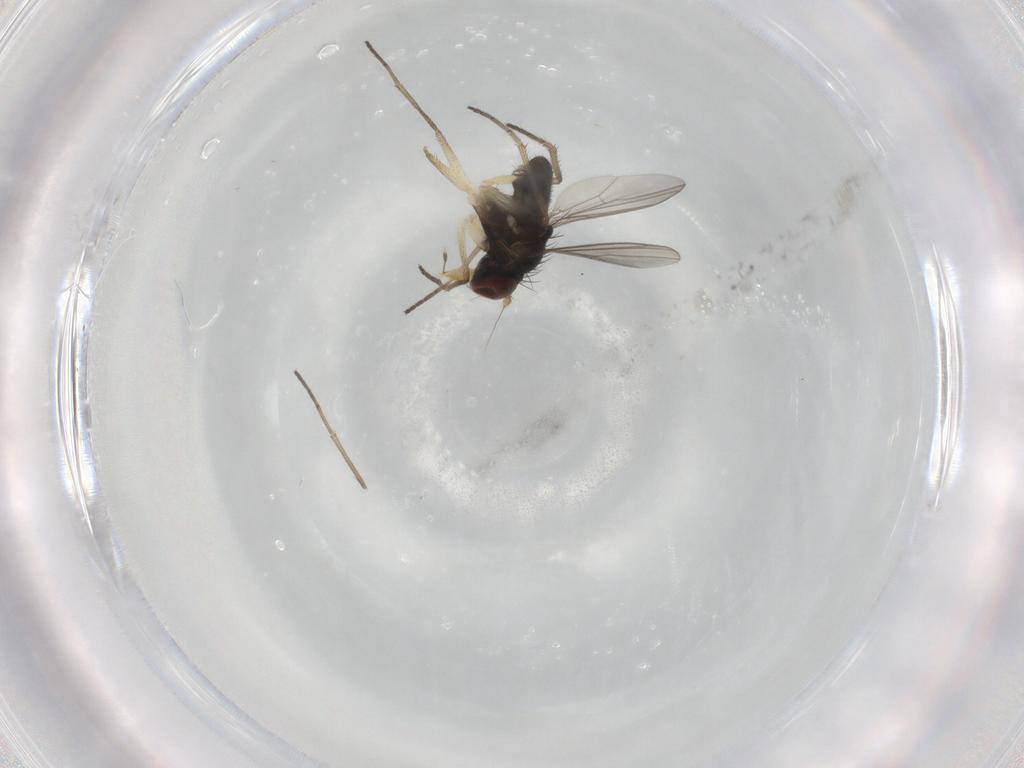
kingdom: Animalia
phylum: Arthropoda
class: Insecta
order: Diptera
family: Dolichopodidae
